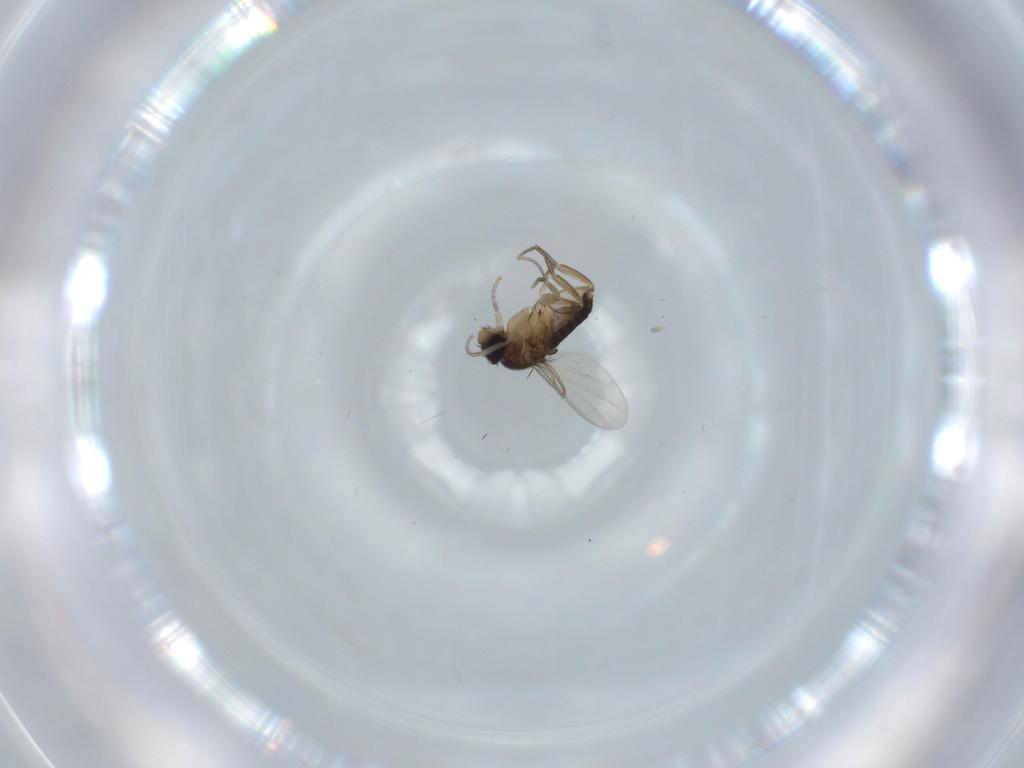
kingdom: Animalia
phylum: Arthropoda
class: Insecta
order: Diptera
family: Phoridae
